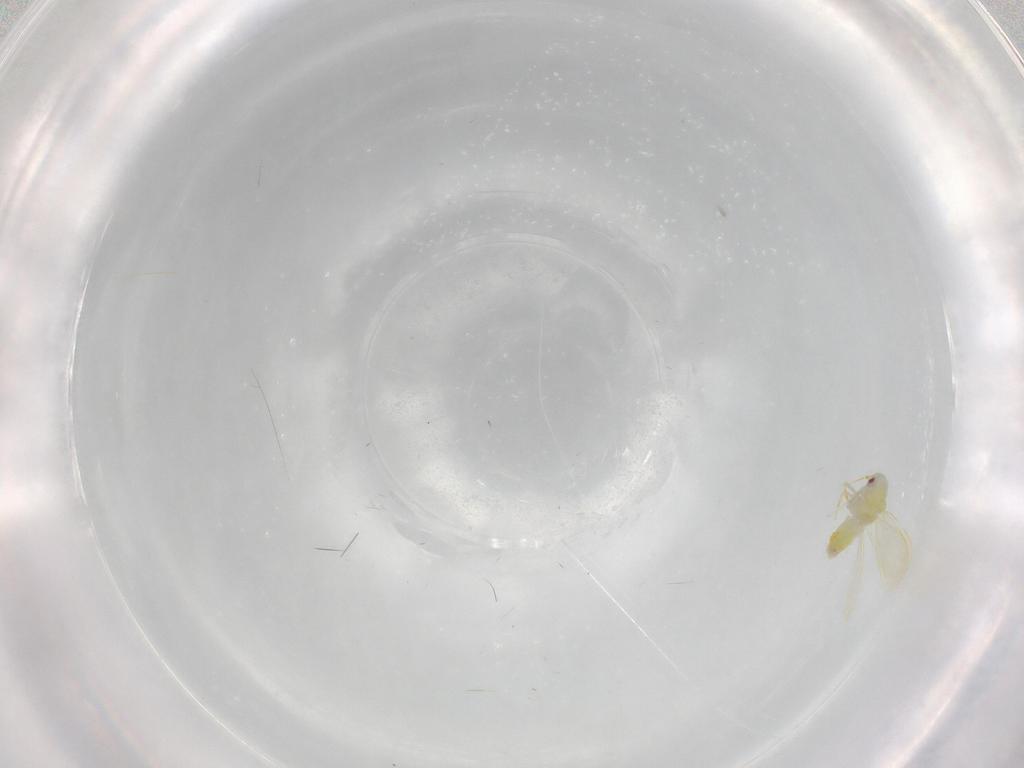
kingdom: Animalia
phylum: Arthropoda
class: Insecta
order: Hemiptera
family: Aleyrodidae
